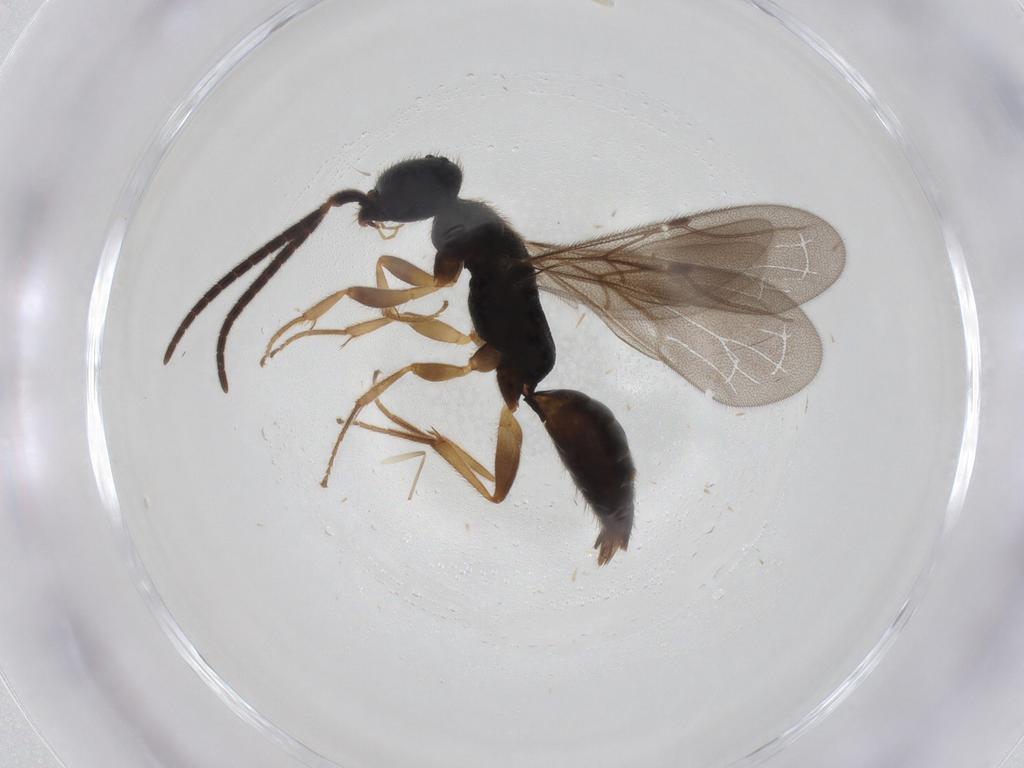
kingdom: Animalia
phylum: Arthropoda
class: Insecta
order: Hymenoptera
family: Bethylidae
